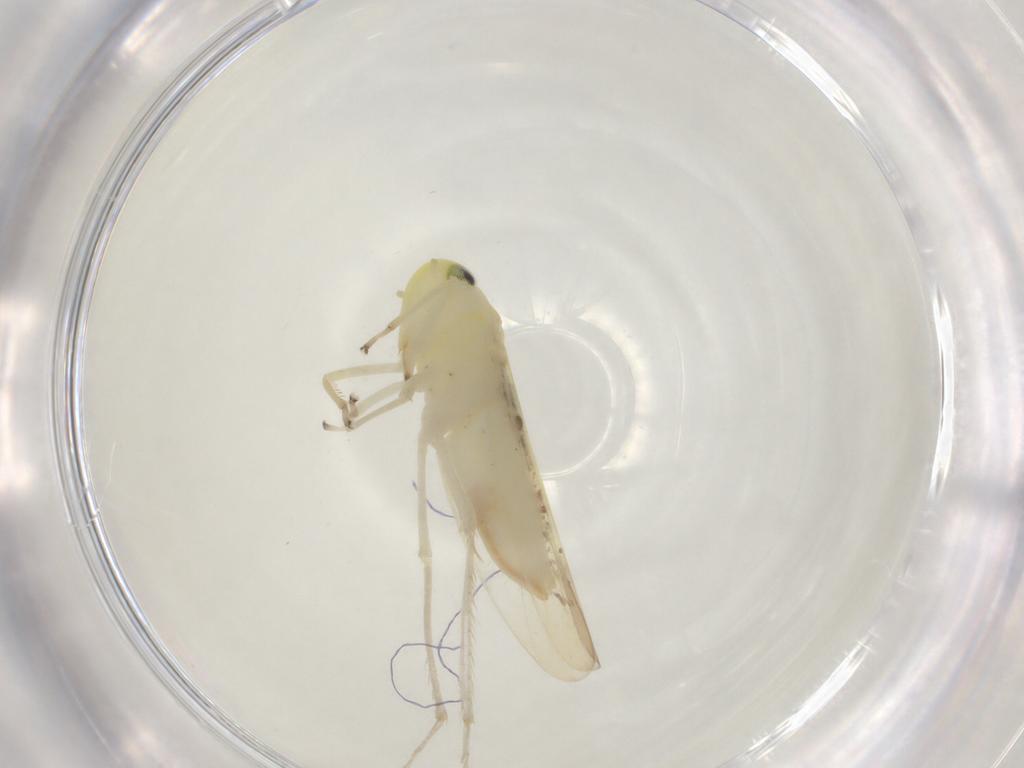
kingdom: Animalia
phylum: Arthropoda
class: Insecta
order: Hemiptera
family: Cicadellidae
